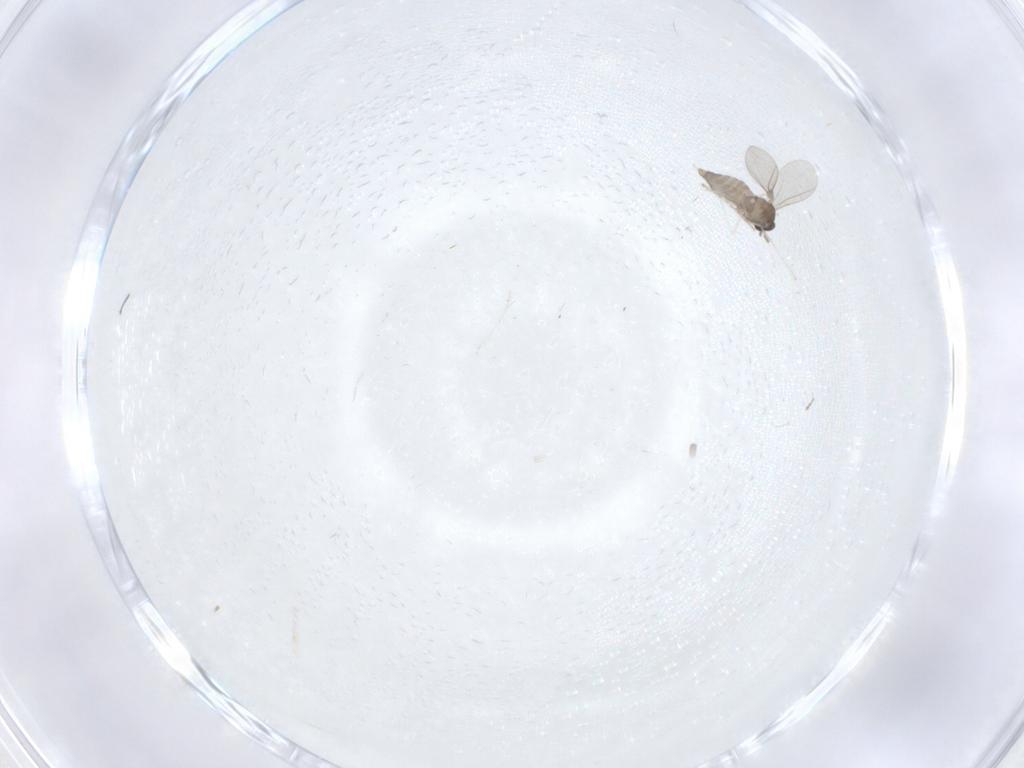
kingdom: Animalia
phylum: Arthropoda
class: Insecta
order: Diptera
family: Cecidomyiidae
